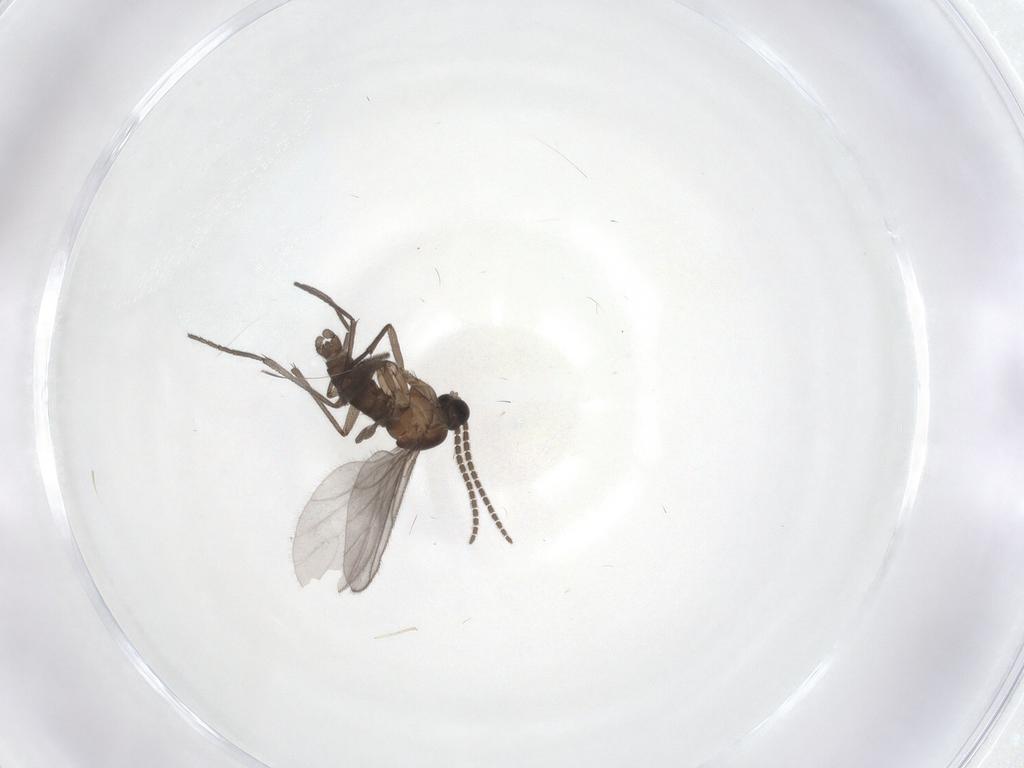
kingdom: Animalia
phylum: Arthropoda
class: Insecta
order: Diptera
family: Sciaridae
